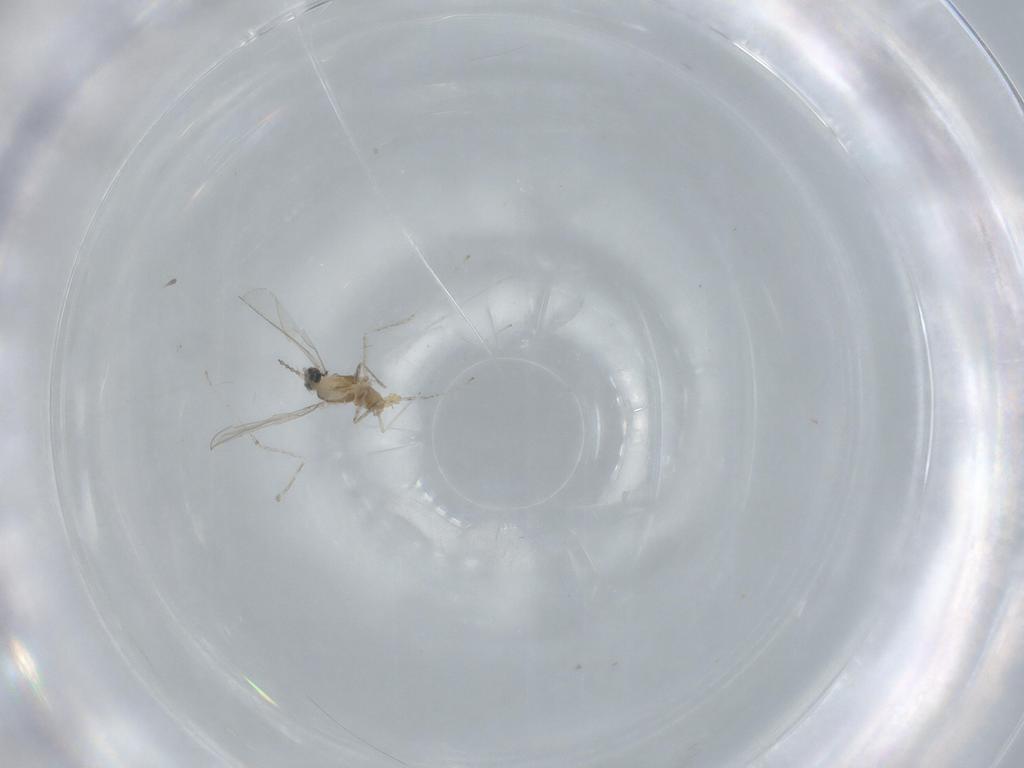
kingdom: Animalia
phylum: Arthropoda
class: Insecta
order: Diptera
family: Cecidomyiidae
